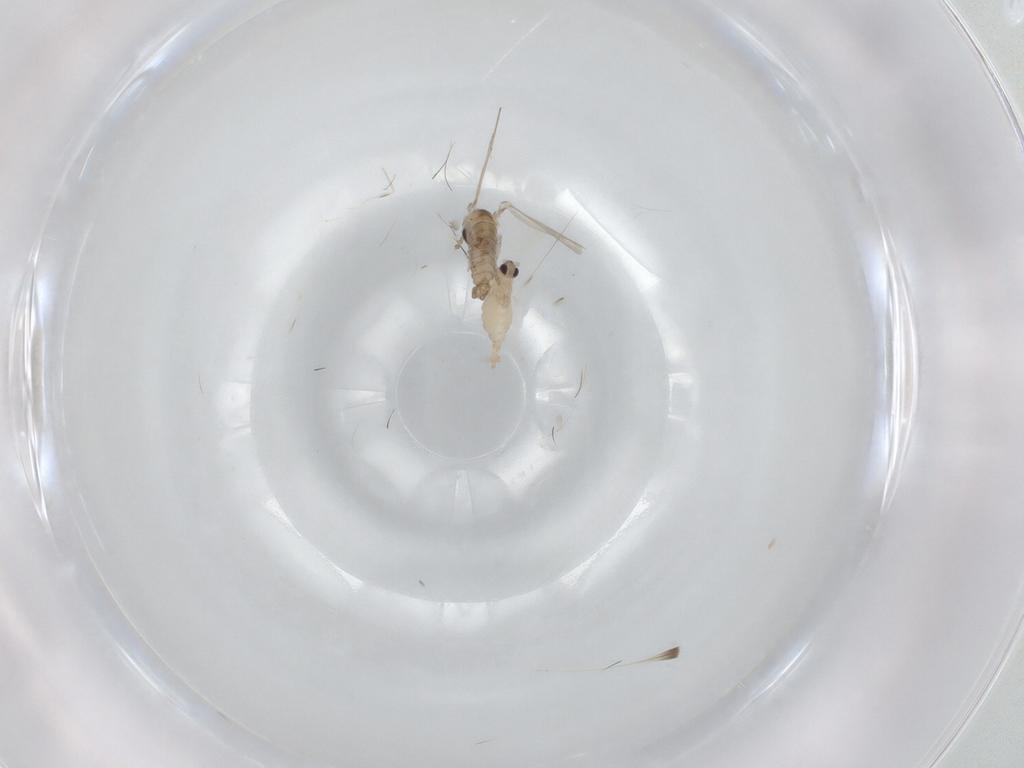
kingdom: Animalia
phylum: Arthropoda
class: Insecta
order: Diptera
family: Psychodidae
